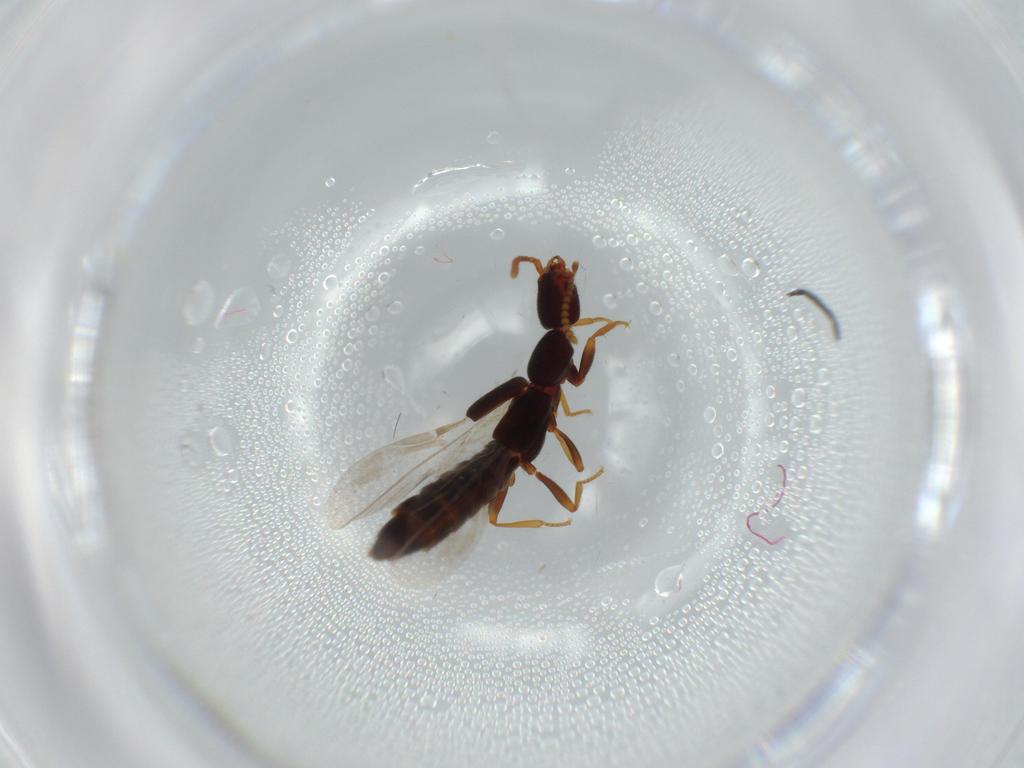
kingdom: Animalia
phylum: Arthropoda
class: Insecta
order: Coleoptera
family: Staphylinidae
